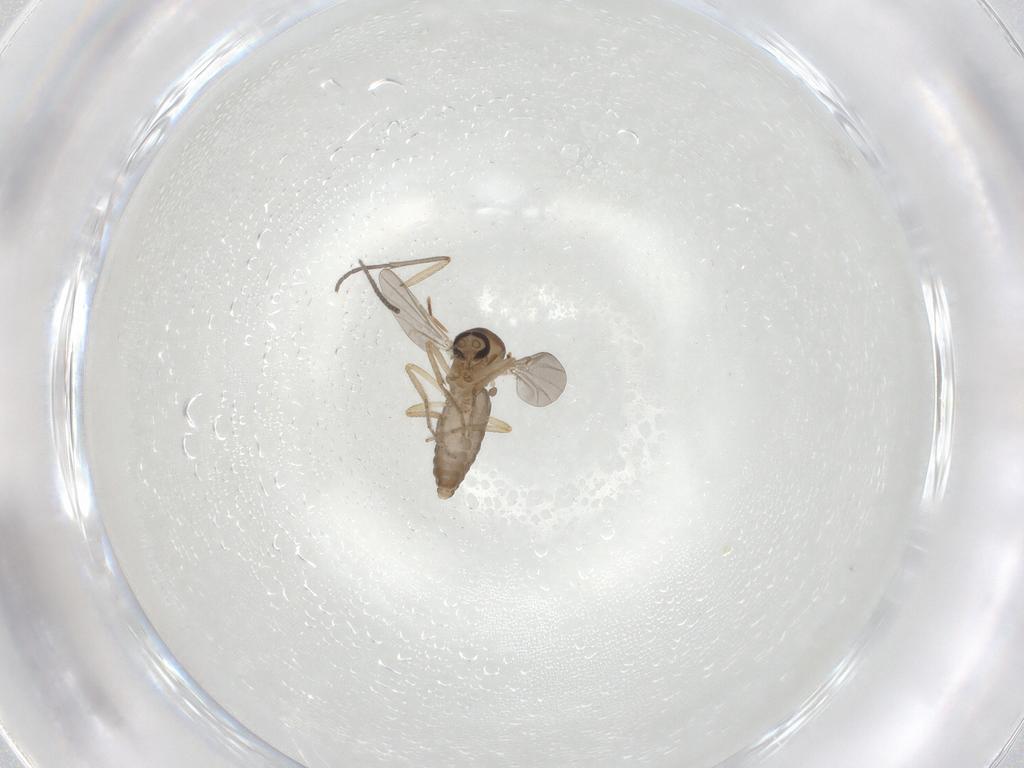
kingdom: Animalia
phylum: Arthropoda
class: Insecta
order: Diptera
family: Ceratopogonidae
